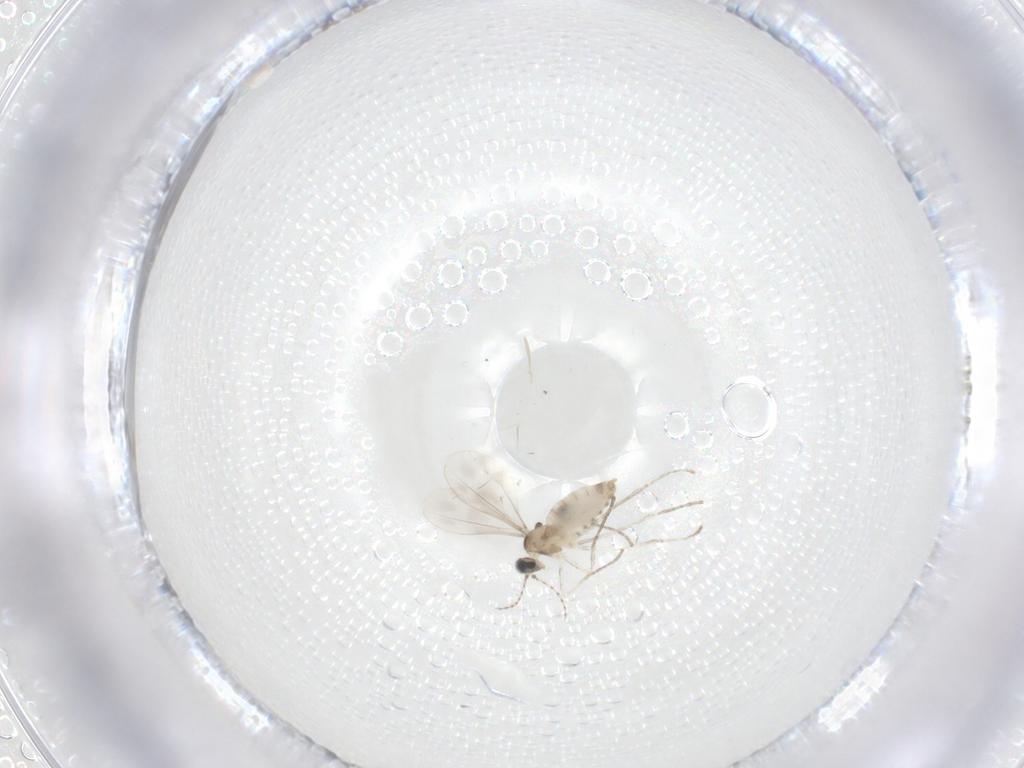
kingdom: Animalia
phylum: Arthropoda
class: Insecta
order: Diptera
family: Cecidomyiidae
